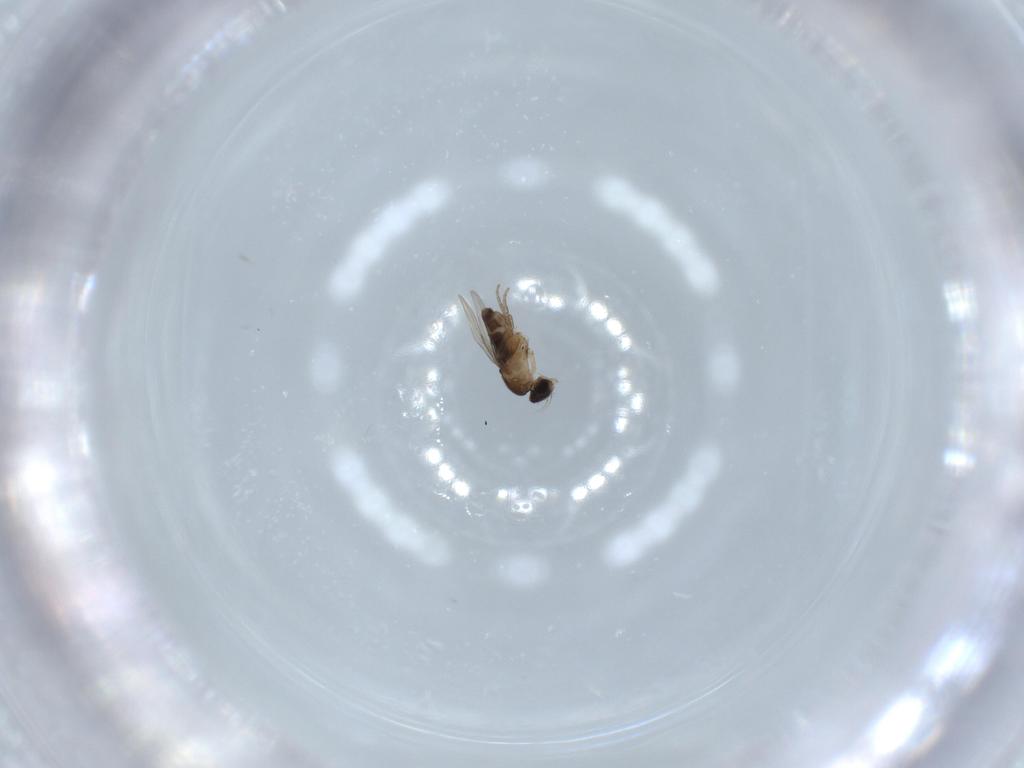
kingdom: Animalia
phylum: Arthropoda
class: Insecta
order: Diptera
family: Phoridae
